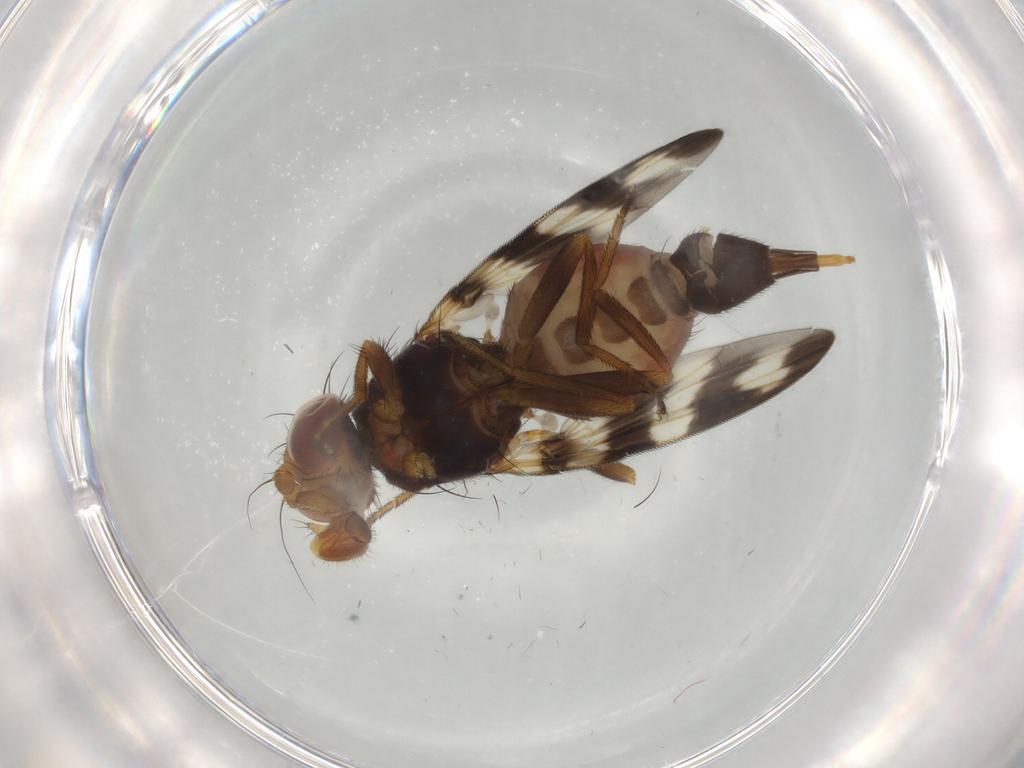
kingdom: Animalia
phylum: Arthropoda
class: Insecta
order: Diptera
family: Ulidiidae
